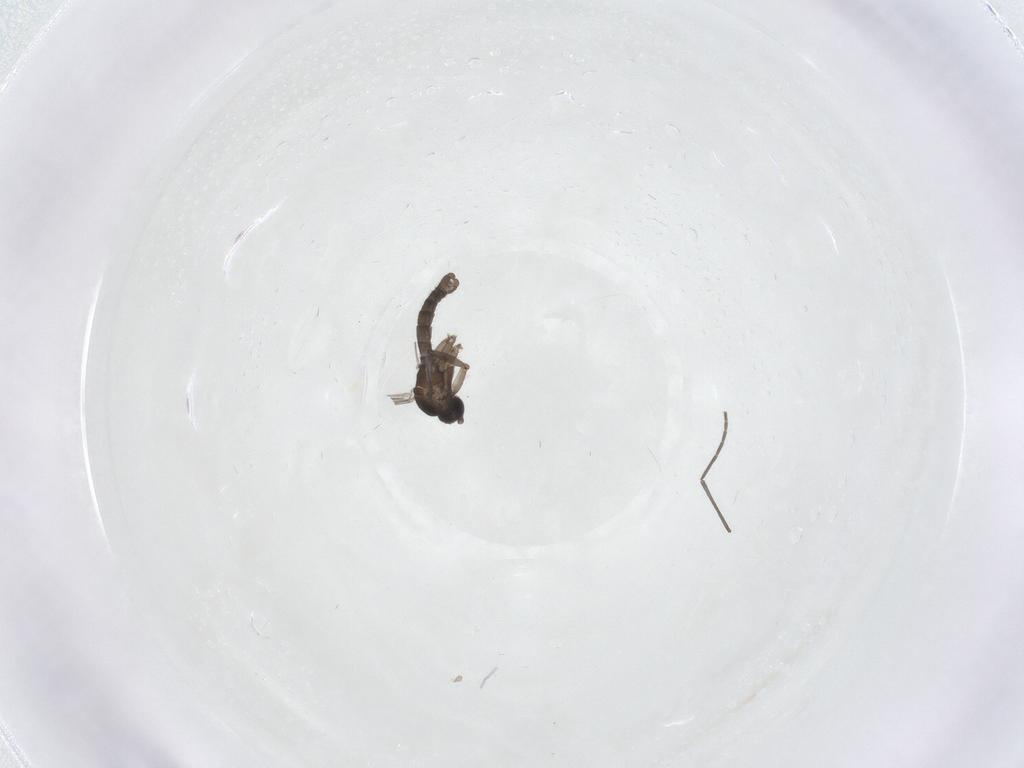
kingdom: Animalia
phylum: Arthropoda
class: Insecta
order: Diptera
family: Sciaridae
